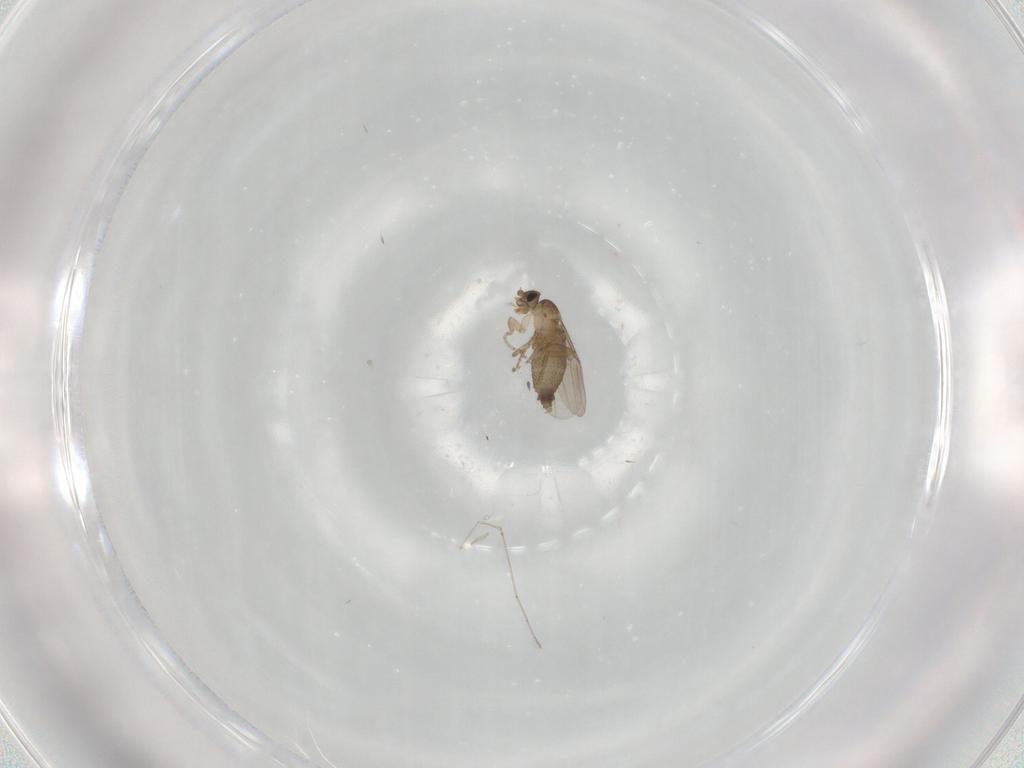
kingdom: Animalia
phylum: Arthropoda
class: Insecta
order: Diptera
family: Phoridae
